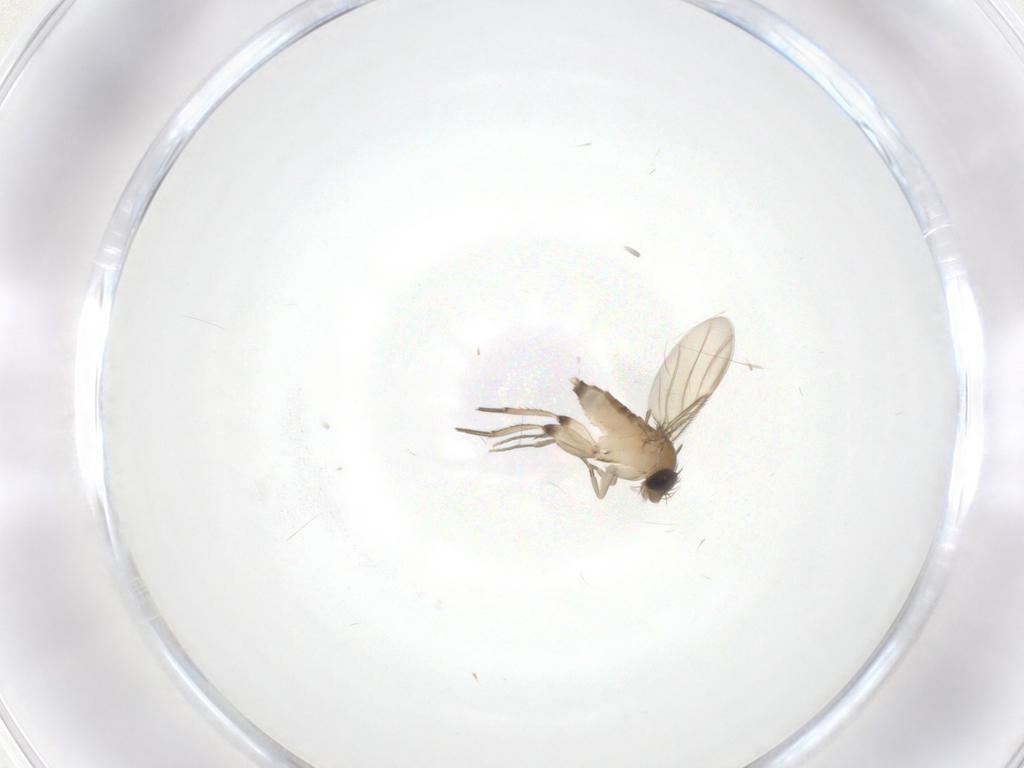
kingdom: Animalia
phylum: Arthropoda
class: Insecta
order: Diptera
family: Phoridae
